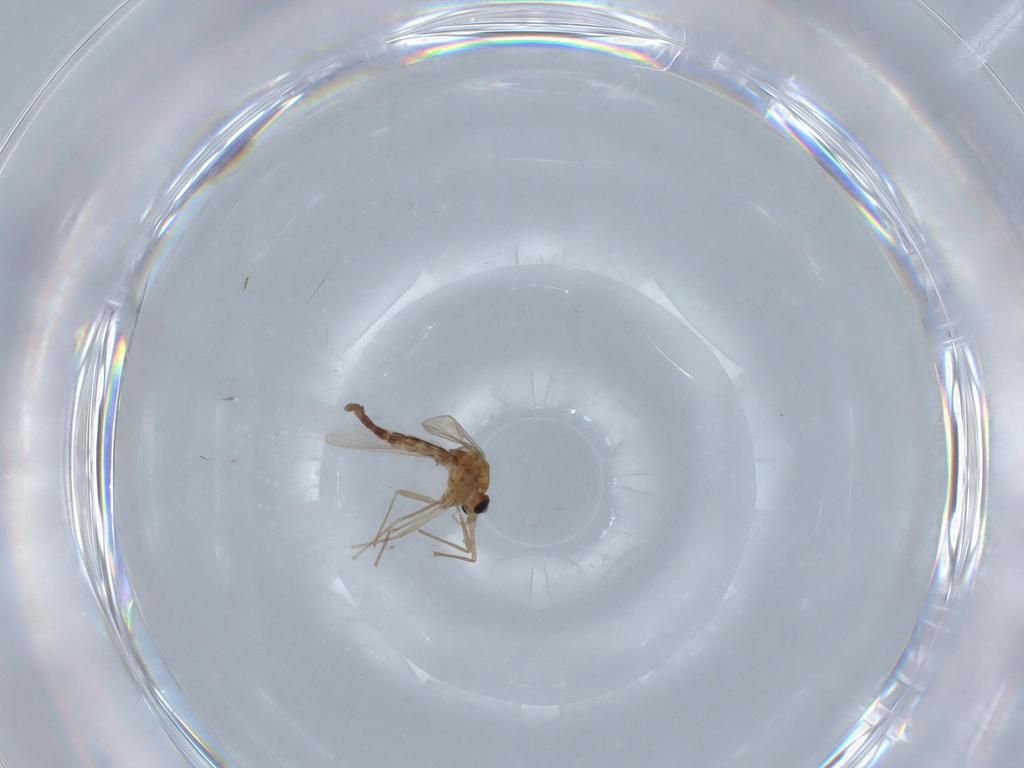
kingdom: Animalia
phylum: Arthropoda
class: Insecta
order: Diptera
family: Chironomidae
